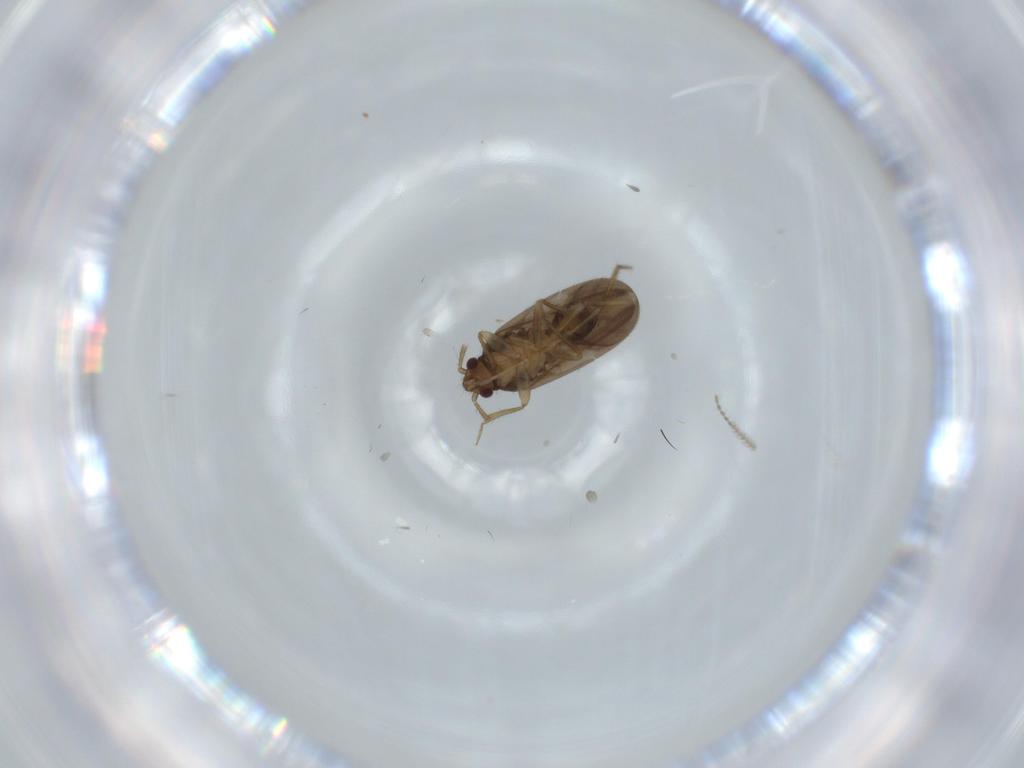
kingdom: Animalia
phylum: Arthropoda
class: Insecta
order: Hemiptera
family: Ceratocombidae
